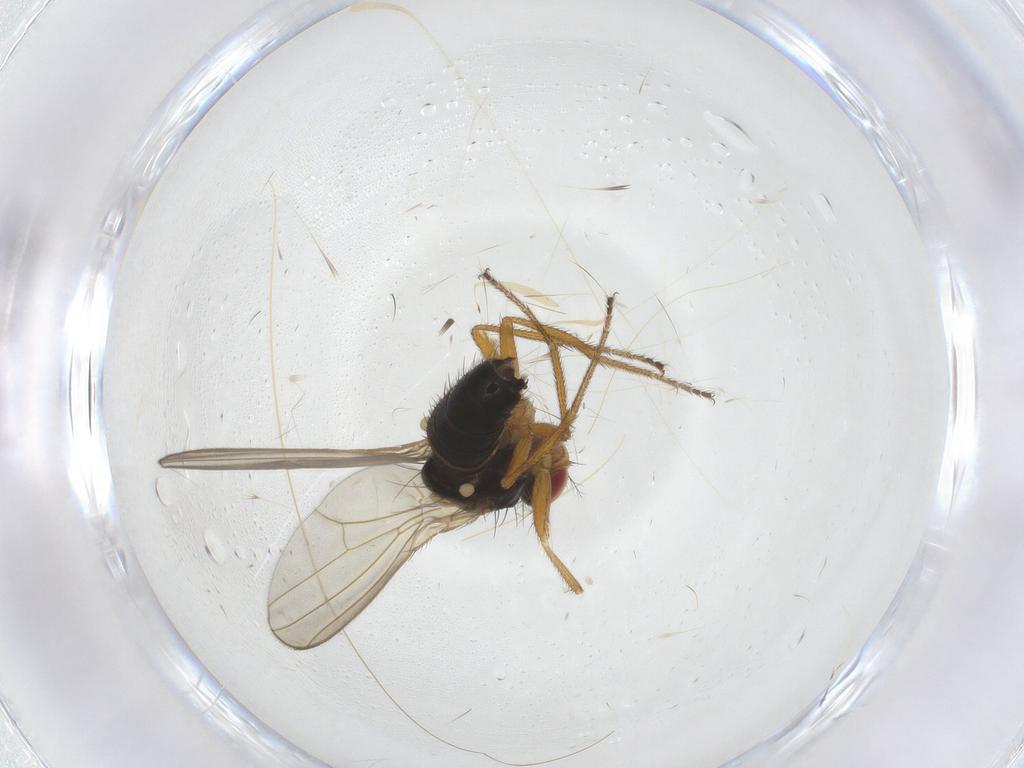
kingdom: Animalia
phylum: Arthropoda
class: Insecta
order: Diptera
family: Drosophilidae
